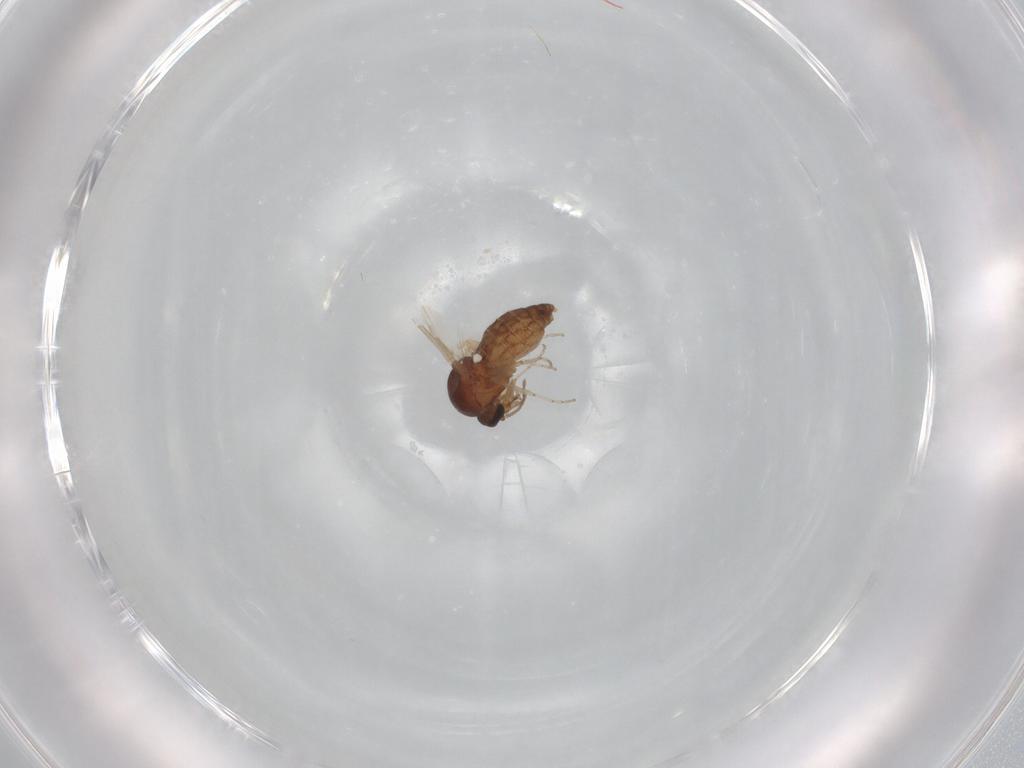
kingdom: Animalia
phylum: Arthropoda
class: Insecta
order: Diptera
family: Ceratopogonidae
